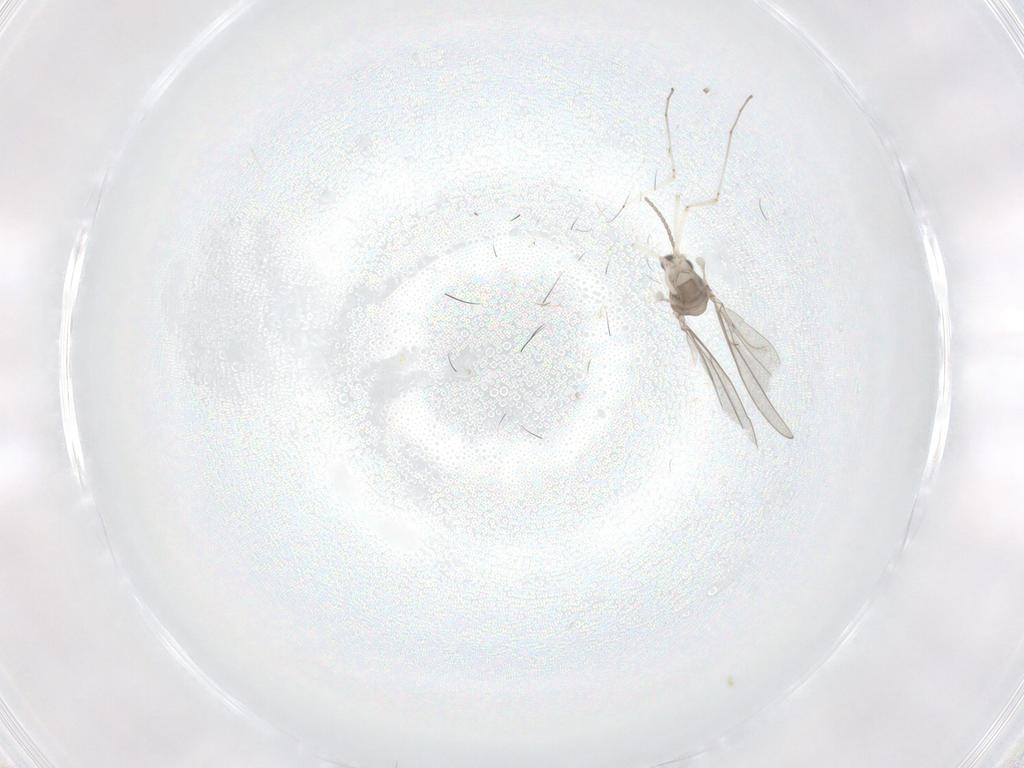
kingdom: Animalia
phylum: Arthropoda
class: Insecta
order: Diptera
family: Cecidomyiidae
